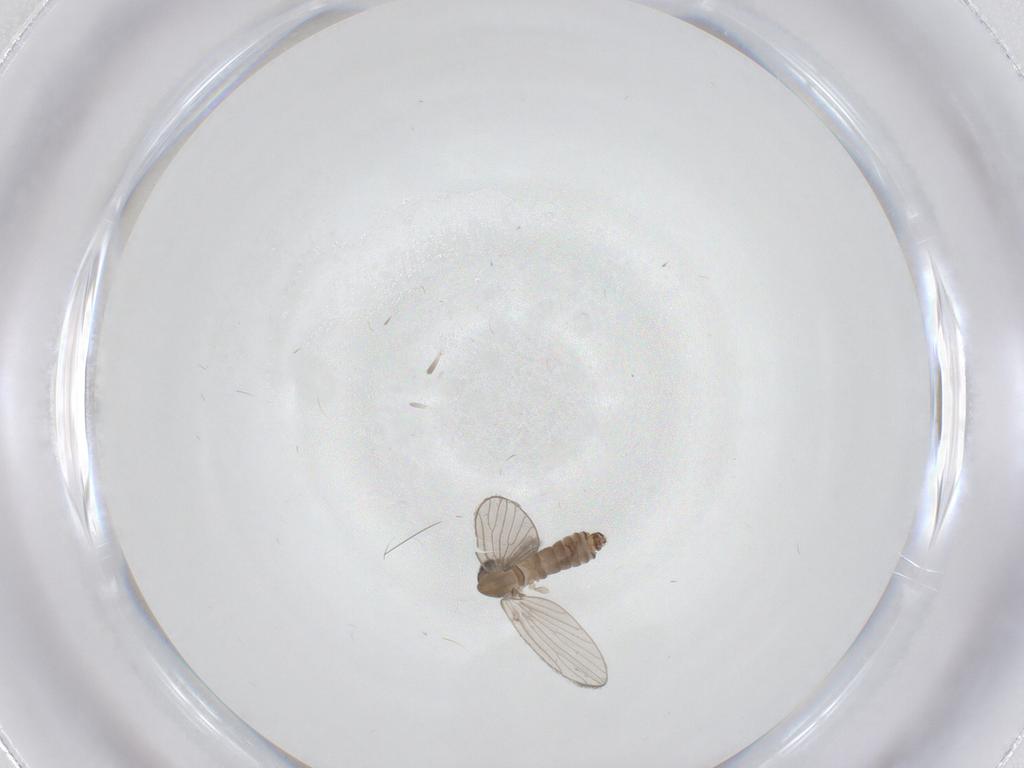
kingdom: Animalia
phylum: Arthropoda
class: Insecta
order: Diptera
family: Psychodidae
